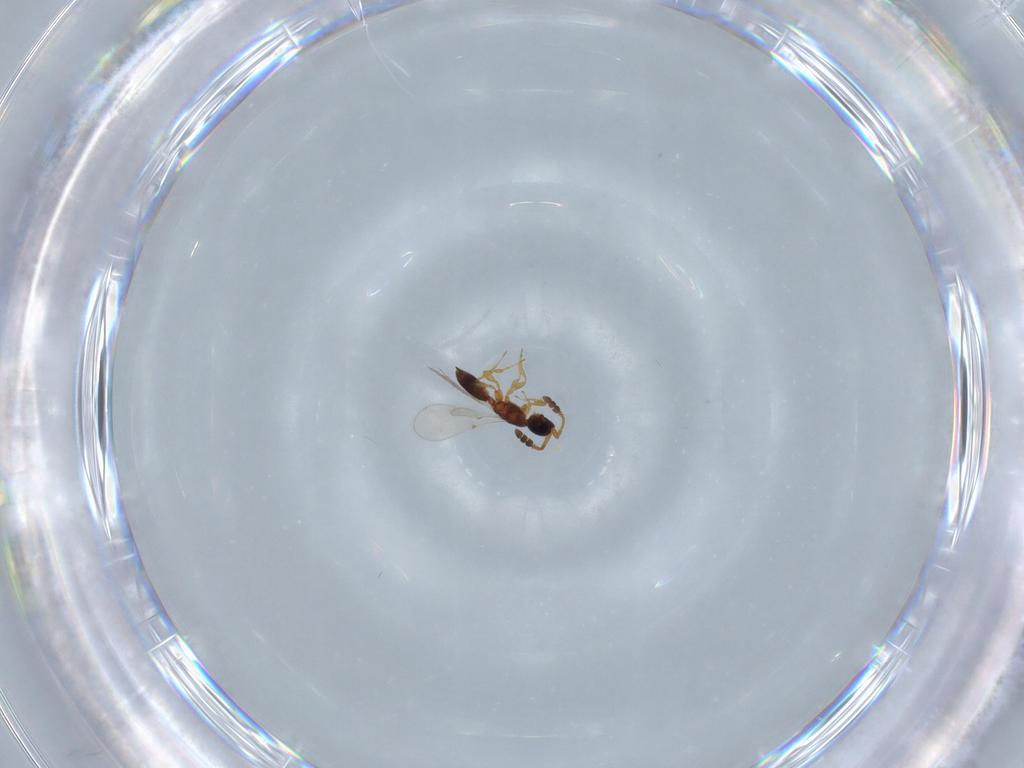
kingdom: Animalia
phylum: Arthropoda
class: Insecta
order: Hymenoptera
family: Diapriidae
